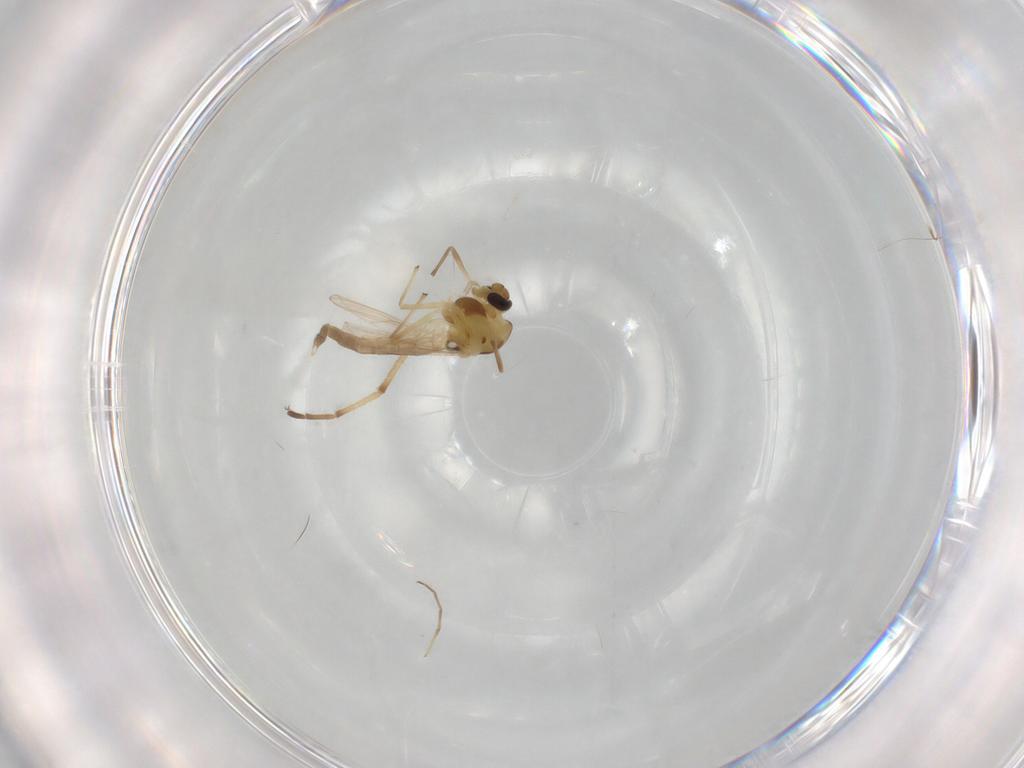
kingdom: Animalia
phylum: Arthropoda
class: Insecta
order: Diptera
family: Chironomidae
